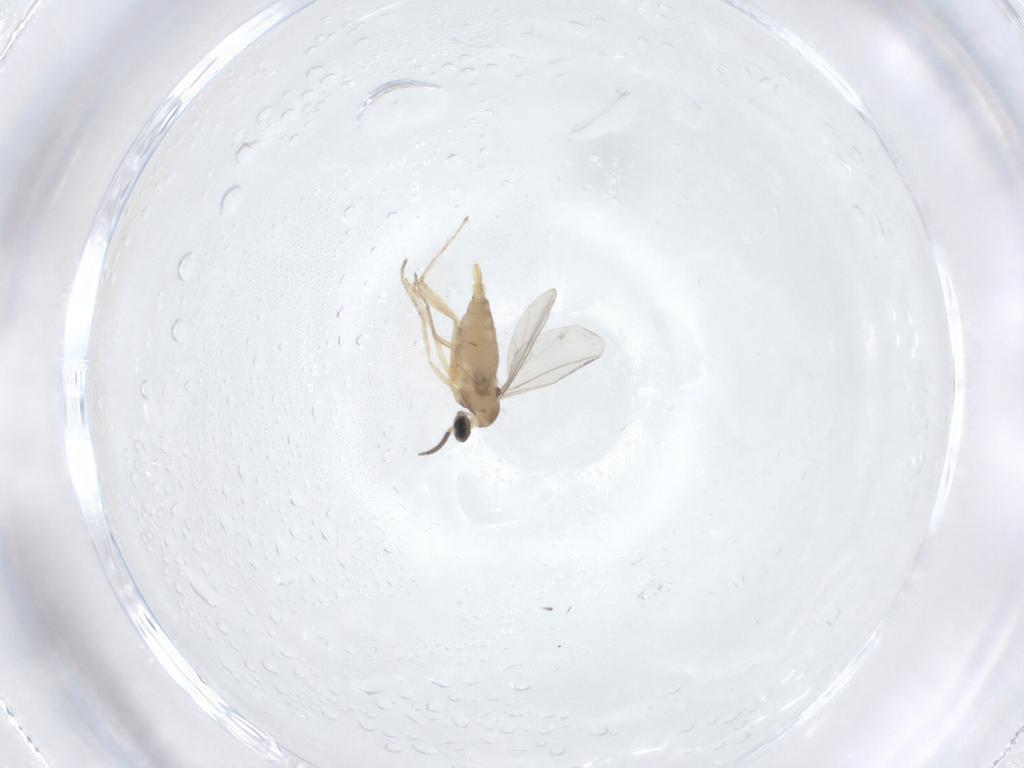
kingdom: Animalia
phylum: Arthropoda
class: Insecta
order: Diptera
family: Cecidomyiidae
